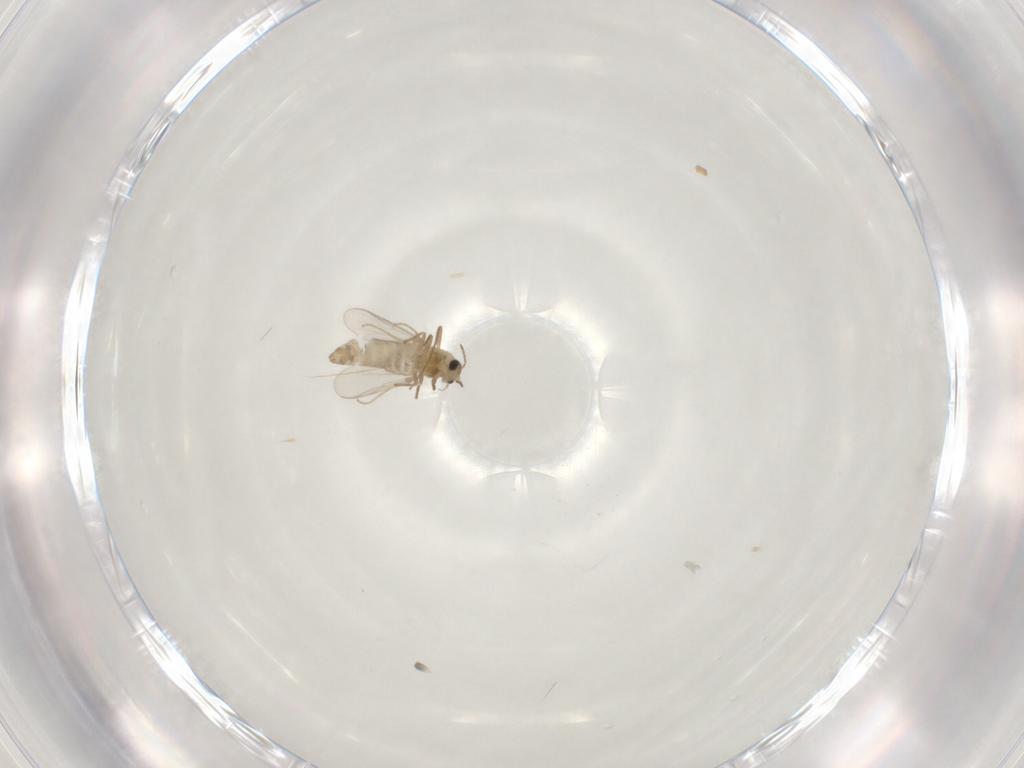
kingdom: Animalia
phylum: Arthropoda
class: Insecta
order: Diptera
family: Chironomidae
